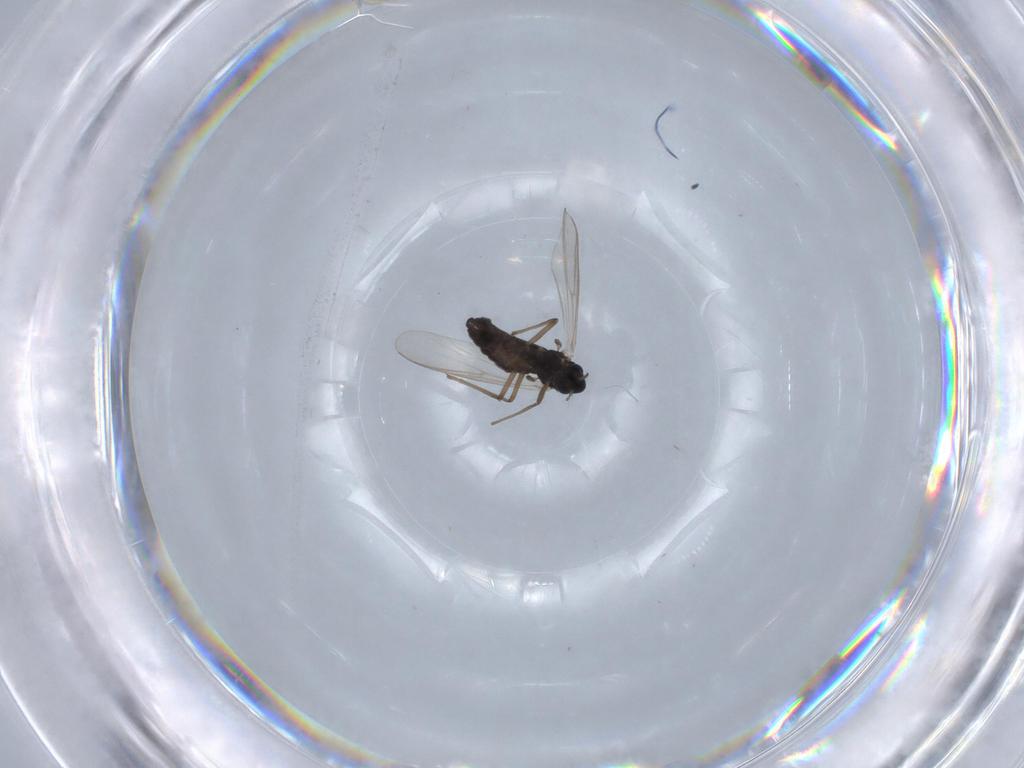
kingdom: Animalia
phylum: Arthropoda
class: Insecta
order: Diptera
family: Chironomidae
